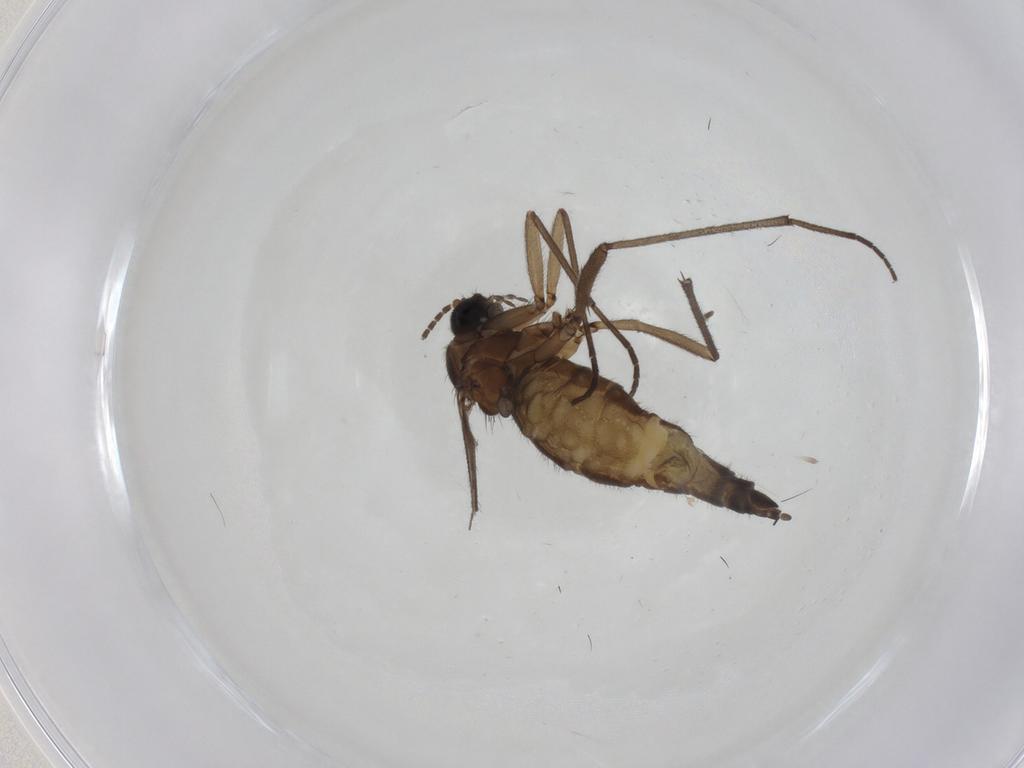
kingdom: Animalia
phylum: Arthropoda
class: Insecta
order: Diptera
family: Sciaridae
